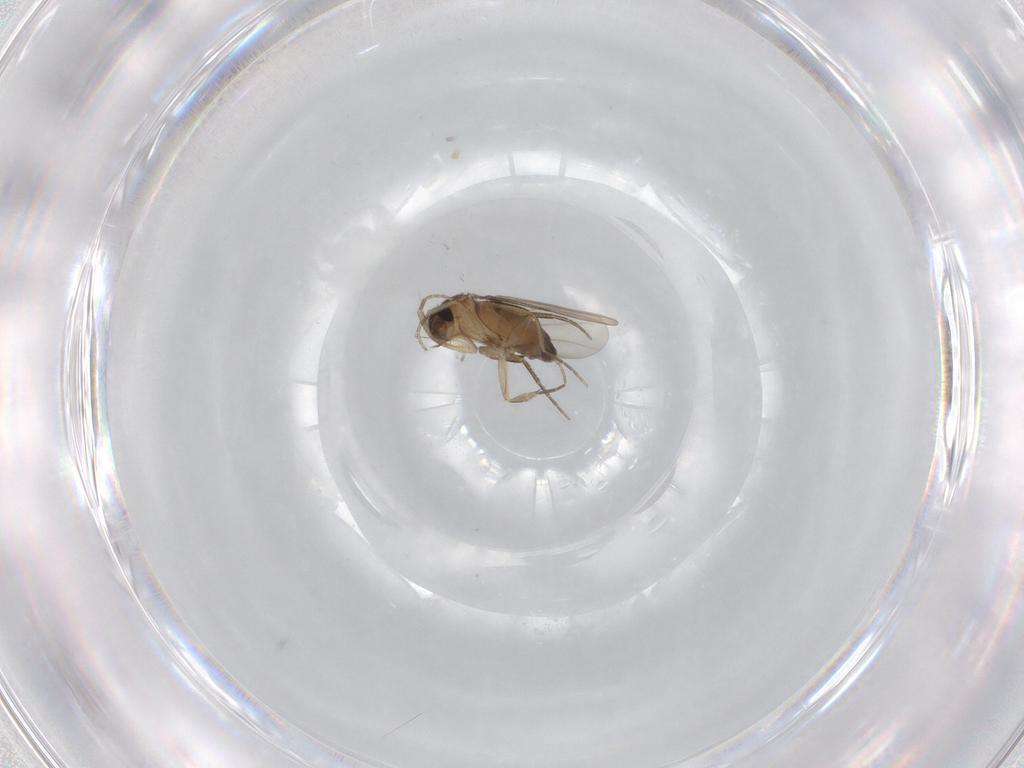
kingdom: Animalia
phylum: Arthropoda
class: Insecta
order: Diptera
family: Phoridae
